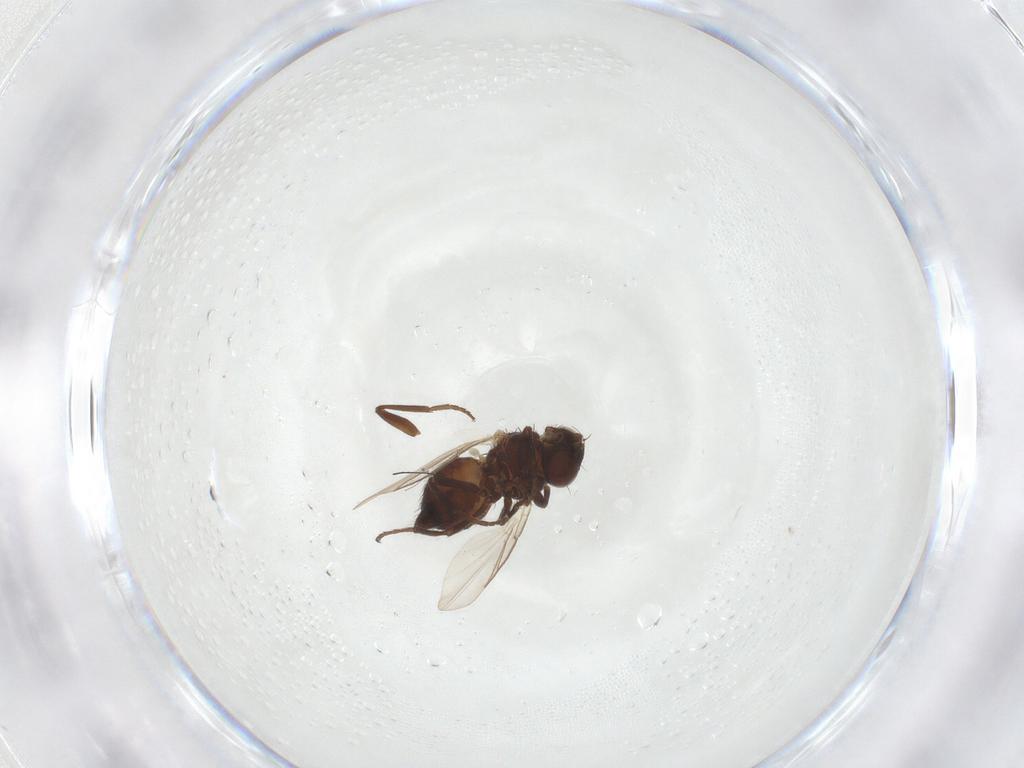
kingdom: Animalia
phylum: Arthropoda
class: Insecta
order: Diptera
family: Agromyzidae
